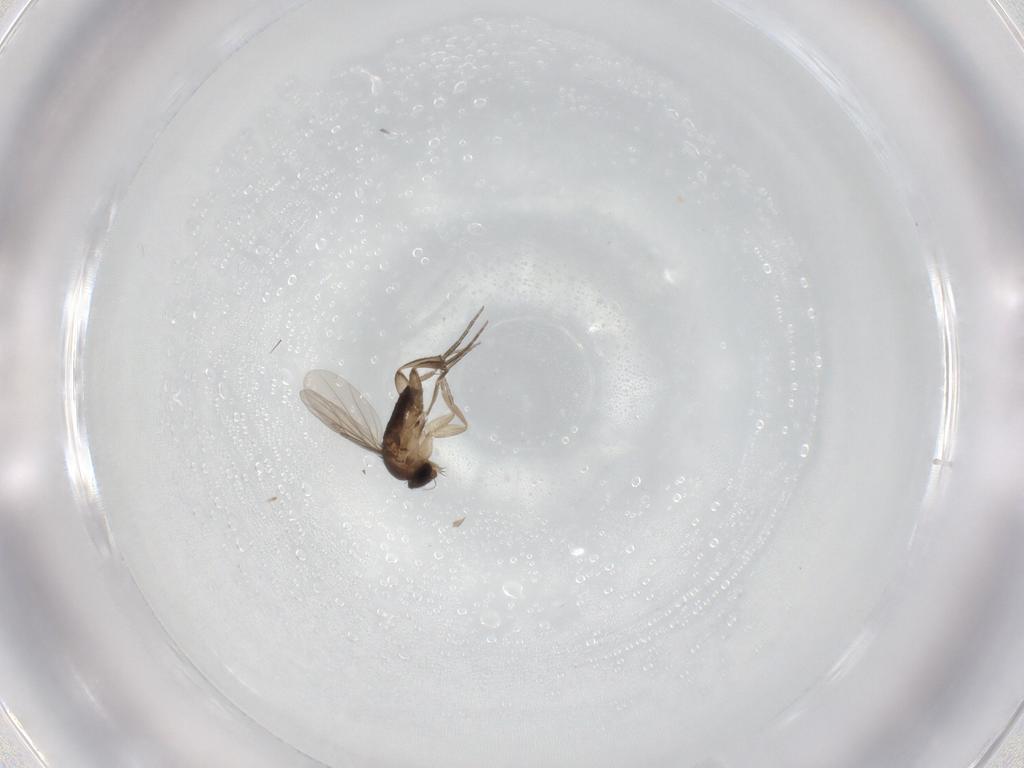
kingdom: Animalia
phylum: Arthropoda
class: Insecta
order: Diptera
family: Phoridae
